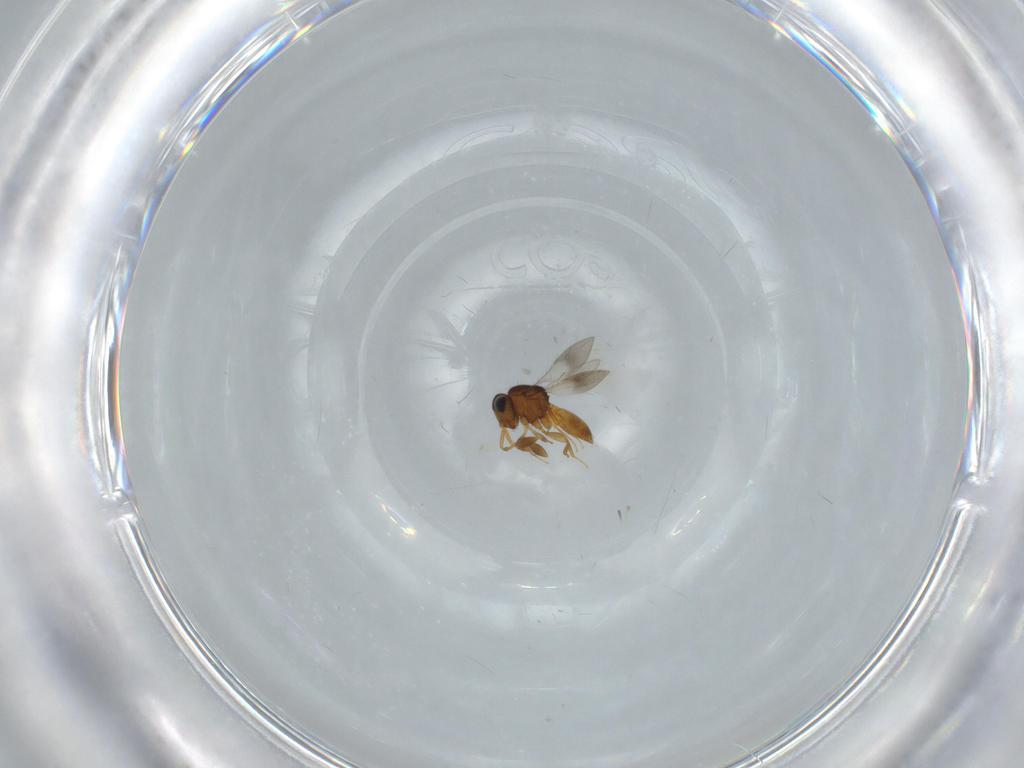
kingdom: Animalia
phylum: Arthropoda
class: Insecta
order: Hymenoptera
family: Scelionidae
